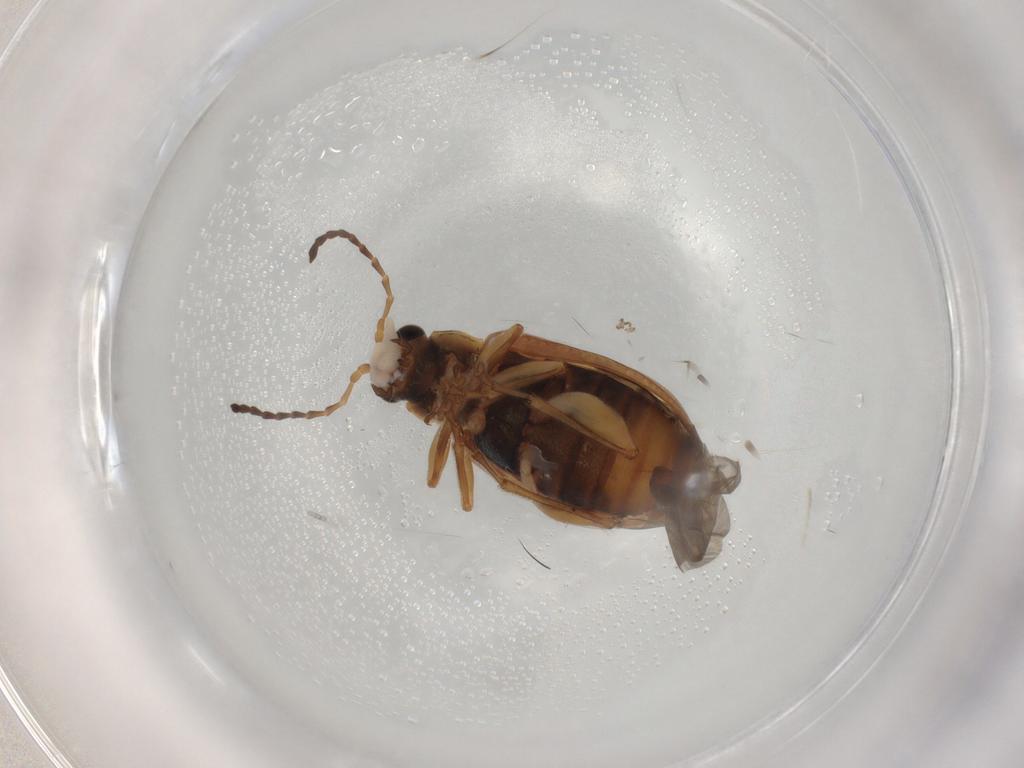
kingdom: Animalia
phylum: Arthropoda
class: Insecta
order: Coleoptera
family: Chrysomelidae
